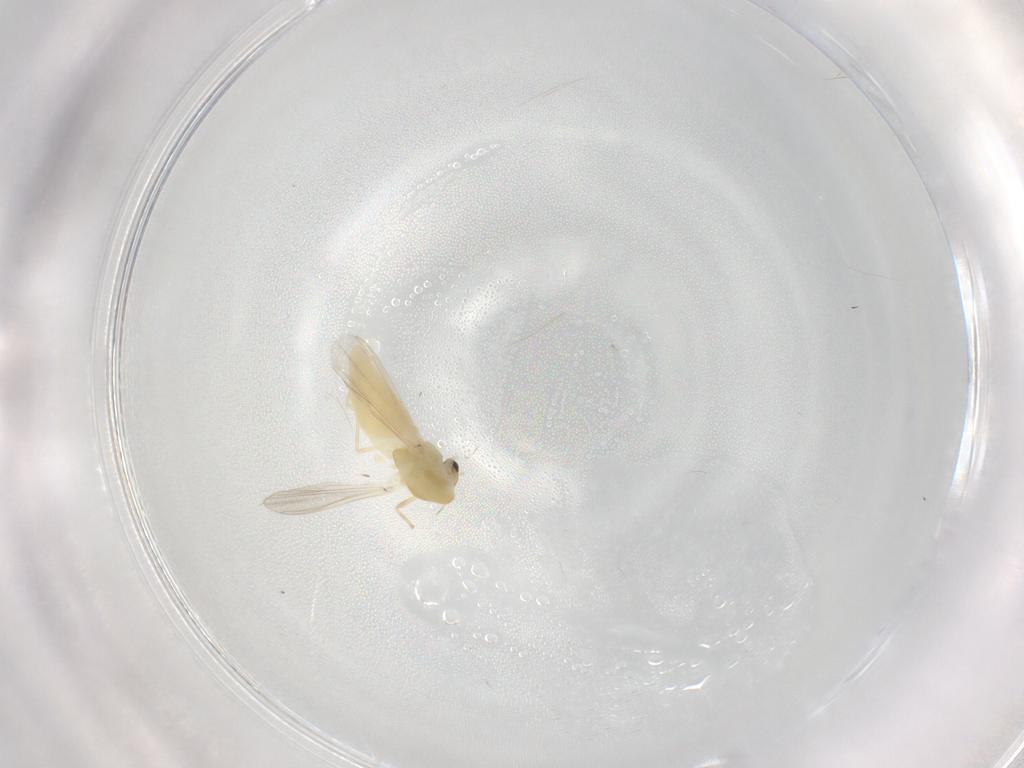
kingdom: Animalia
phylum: Arthropoda
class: Insecta
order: Diptera
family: Chironomidae
